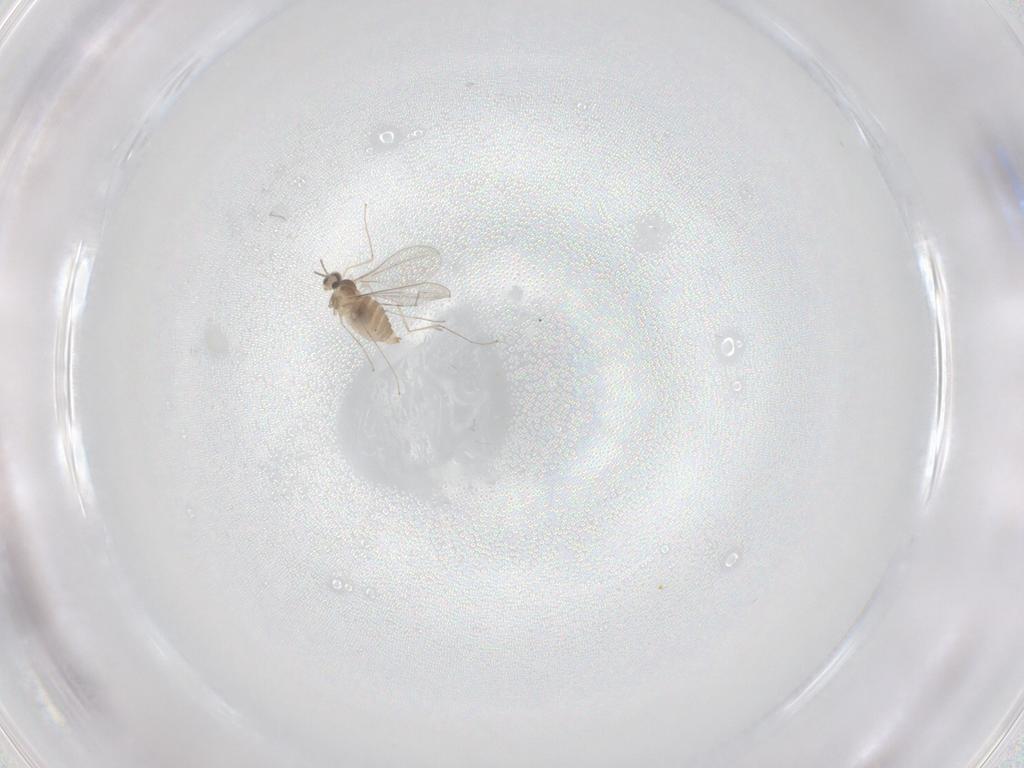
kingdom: Animalia
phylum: Arthropoda
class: Insecta
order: Diptera
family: Cecidomyiidae
